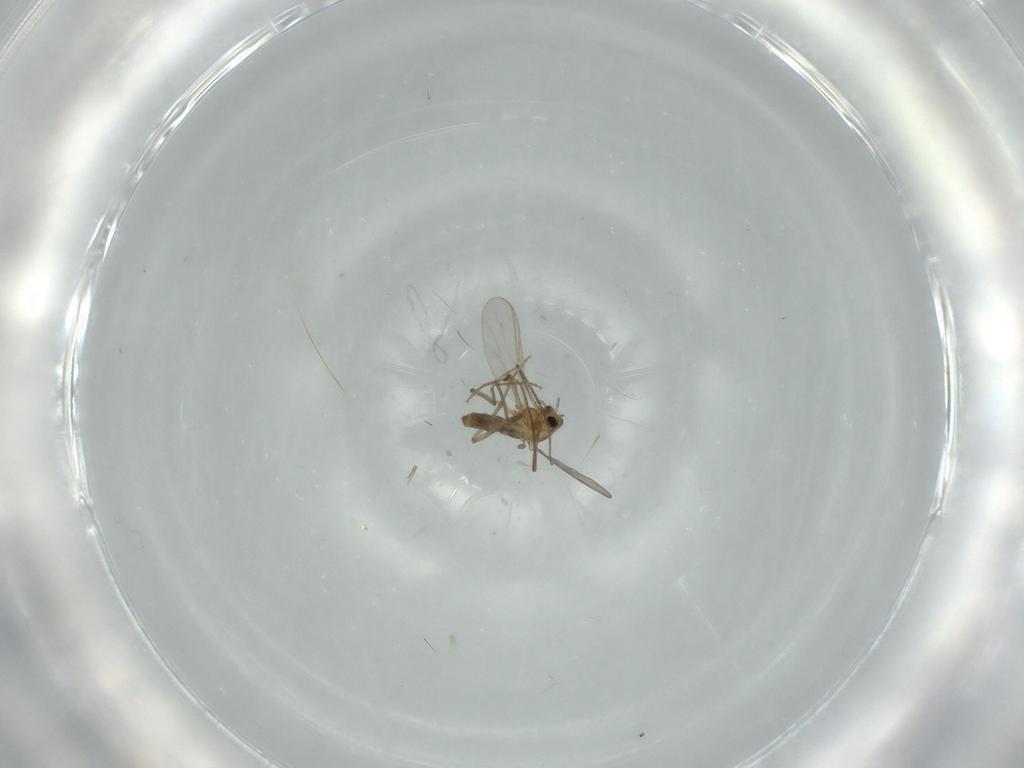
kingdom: Animalia
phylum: Arthropoda
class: Insecta
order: Diptera
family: Chironomidae
